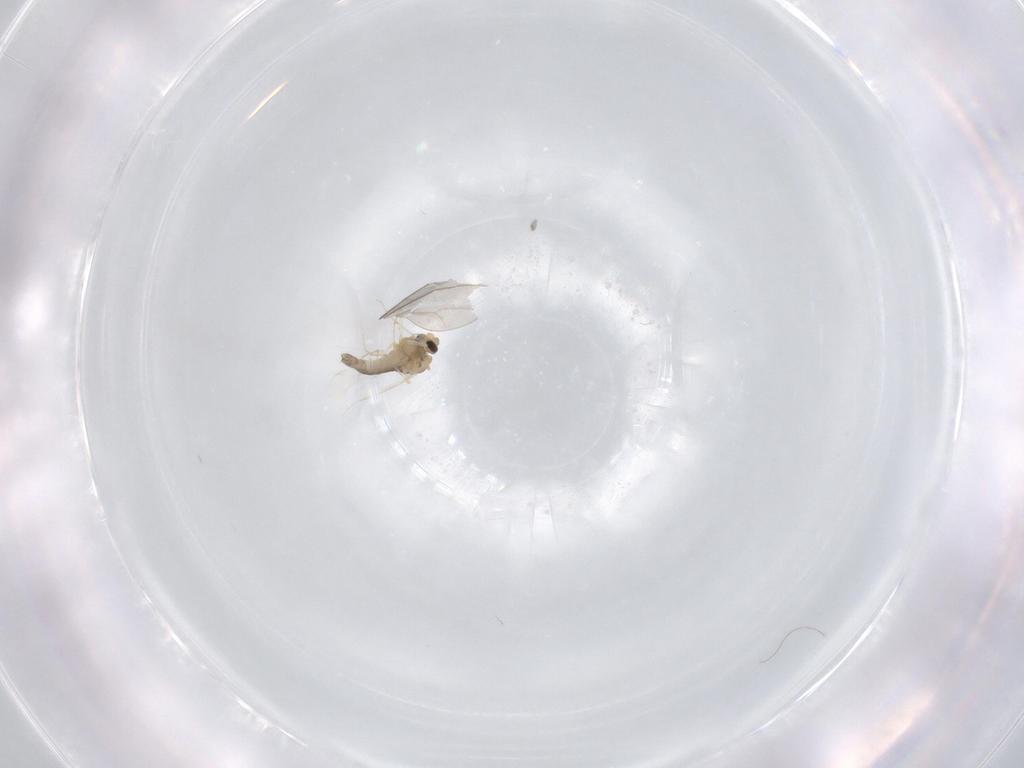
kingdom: Animalia
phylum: Arthropoda
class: Insecta
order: Diptera
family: Chironomidae
